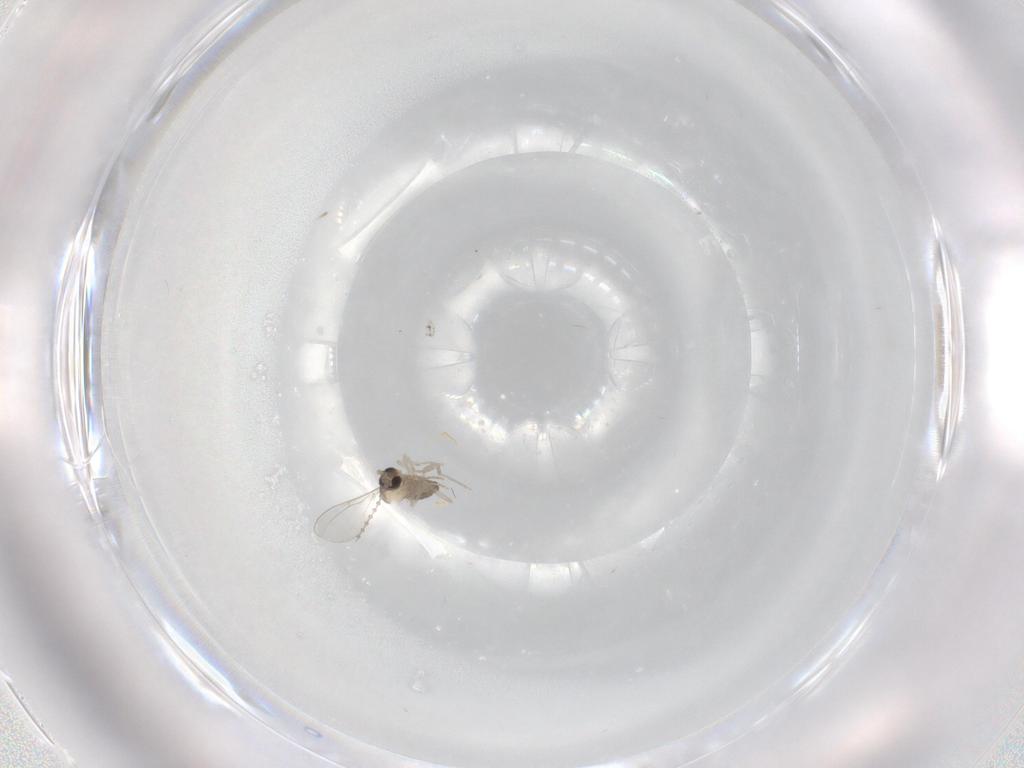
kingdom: Animalia
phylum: Arthropoda
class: Insecta
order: Diptera
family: Cecidomyiidae
